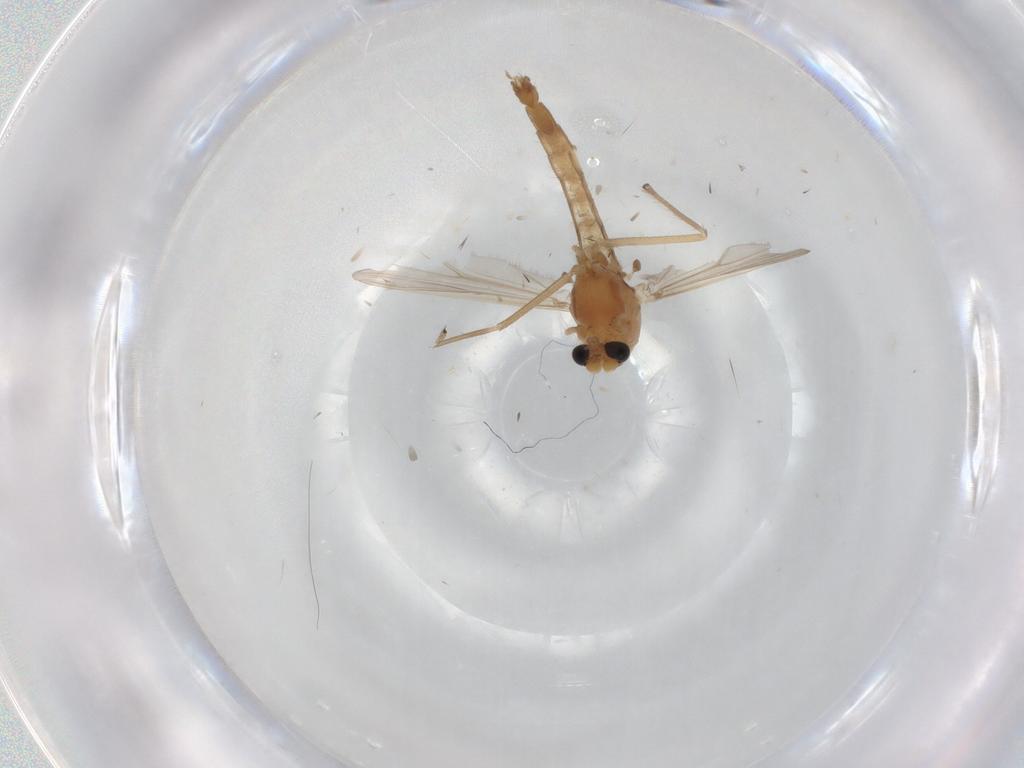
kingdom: Animalia
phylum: Arthropoda
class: Insecta
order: Diptera
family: Chironomidae
